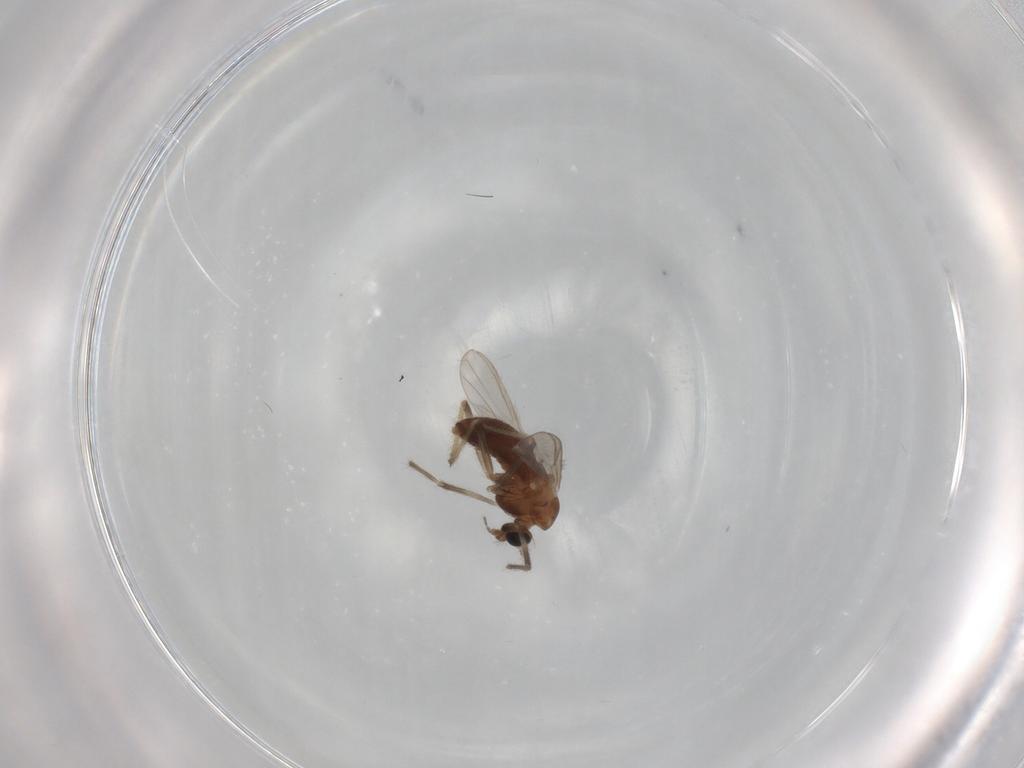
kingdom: Animalia
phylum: Arthropoda
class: Insecta
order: Diptera
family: Chironomidae
